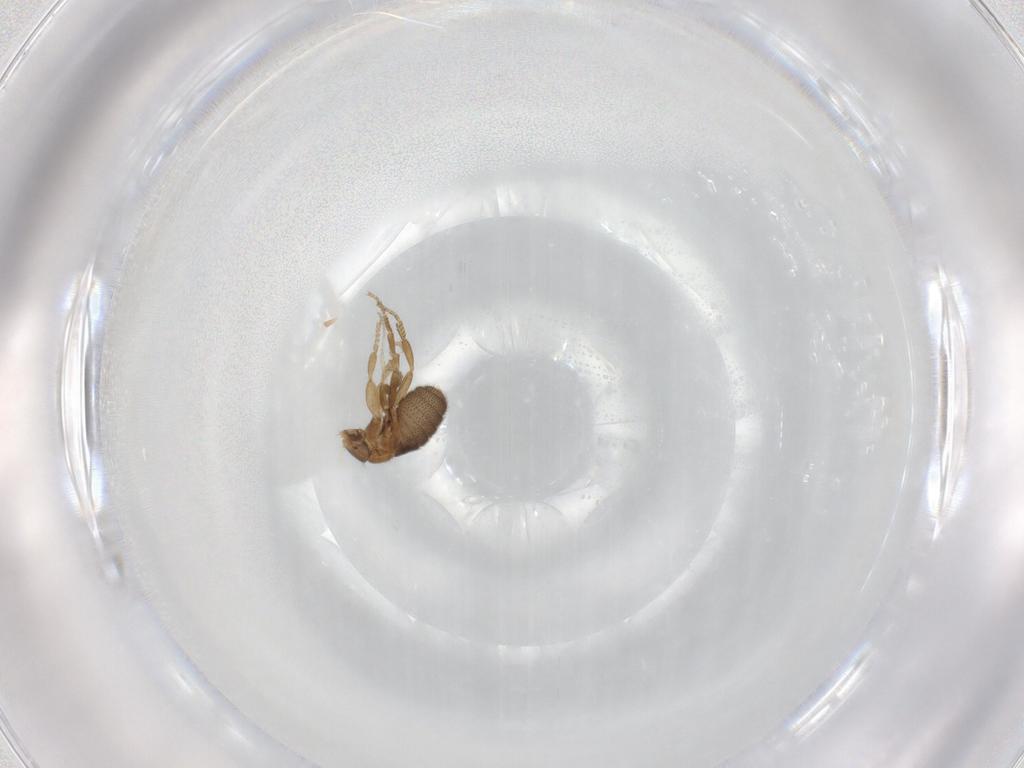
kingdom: Animalia
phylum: Arthropoda
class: Insecta
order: Diptera
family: Phoridae
